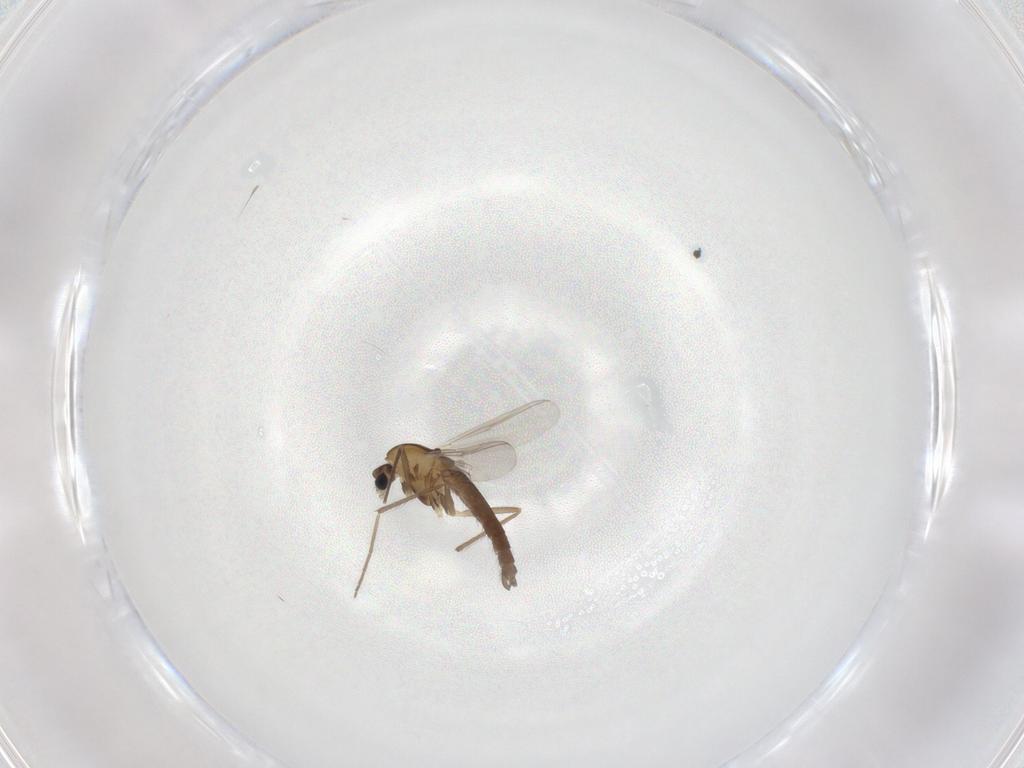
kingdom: Animalia
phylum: Arthropoda
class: Insecta
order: Diptera
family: Chironomidae
